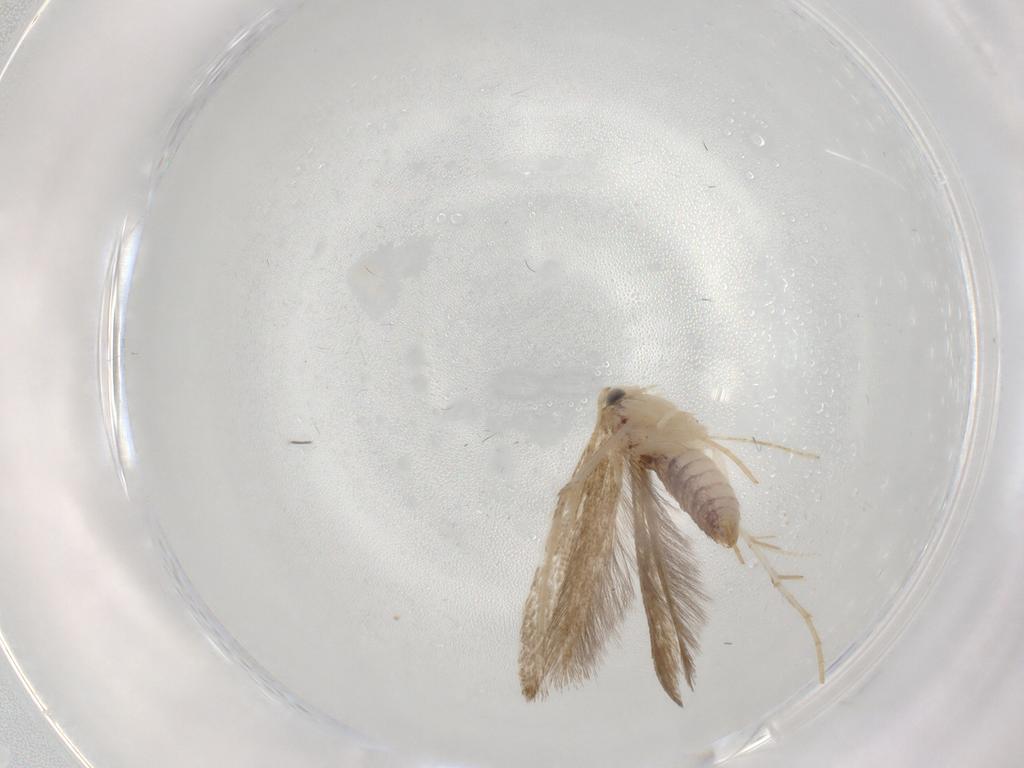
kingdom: Animalia
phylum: Arthropoda
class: Insecta
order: Lepidoptera
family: Lyonetiidae
